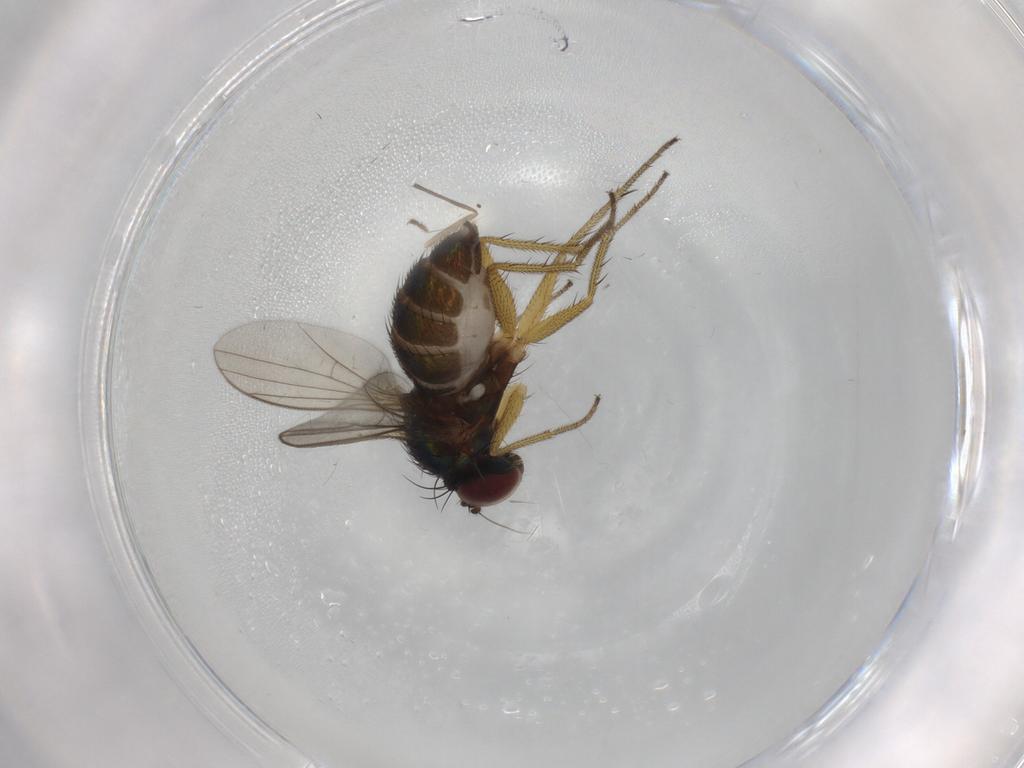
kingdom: Animalia
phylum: Arthropoda
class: Insecta
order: Diptera
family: Chironomidae
